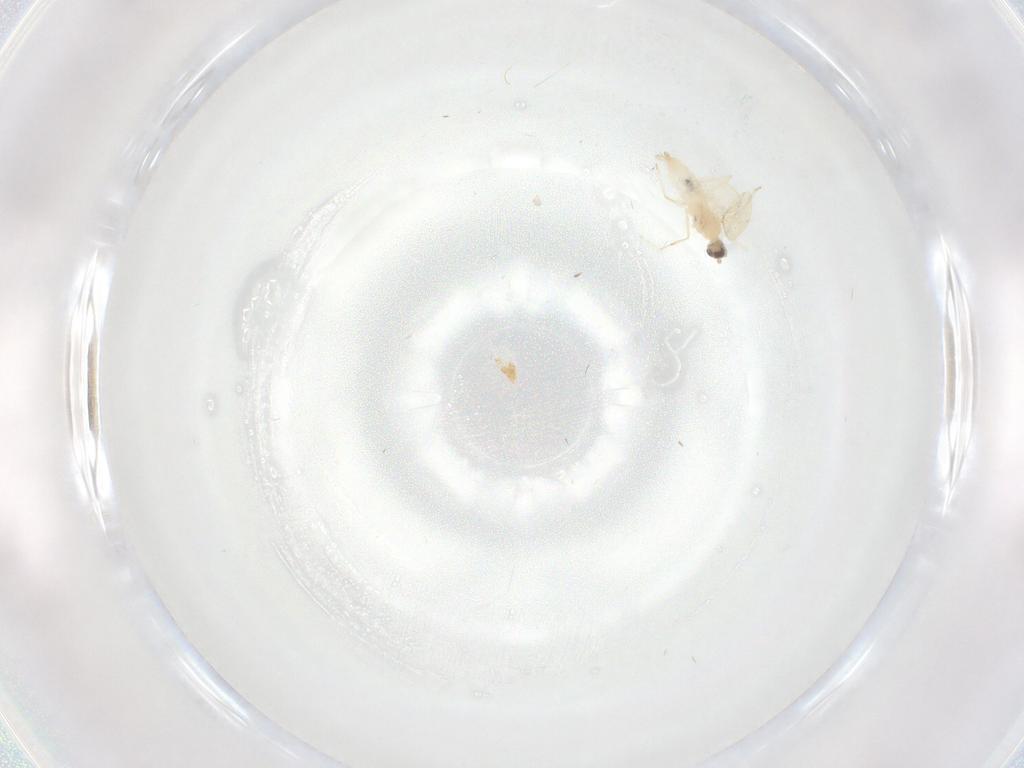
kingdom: Animalia
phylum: Arthropoda
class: Insecta
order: Diptera
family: Cecidomyiidae
